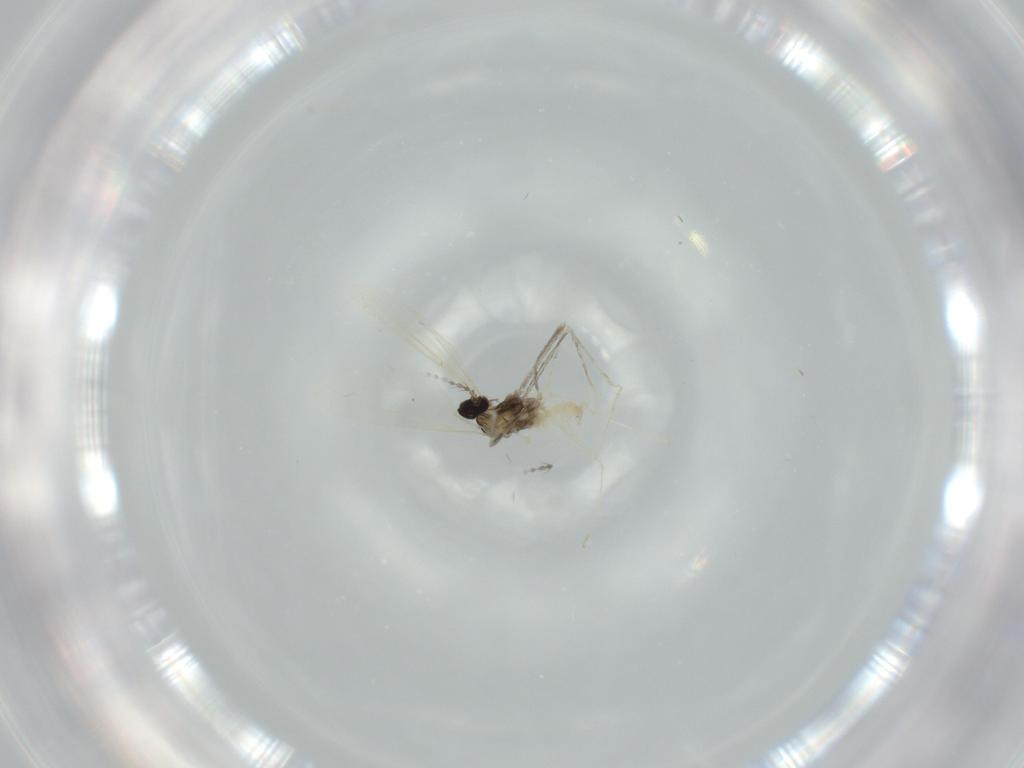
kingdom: Animalia
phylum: Arthropoda
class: Insecta
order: Diptera
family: Cecidomyiidae
